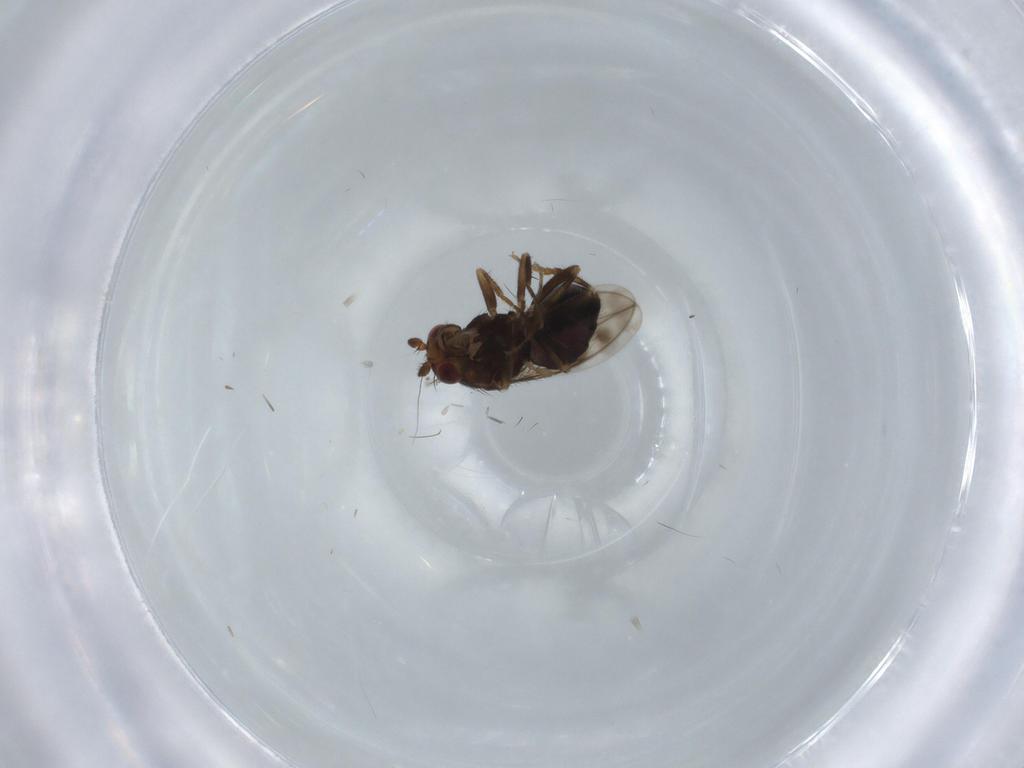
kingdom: Animalia
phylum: Arthropoda
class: Insecta
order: Diptera
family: Sphaeroceridae
